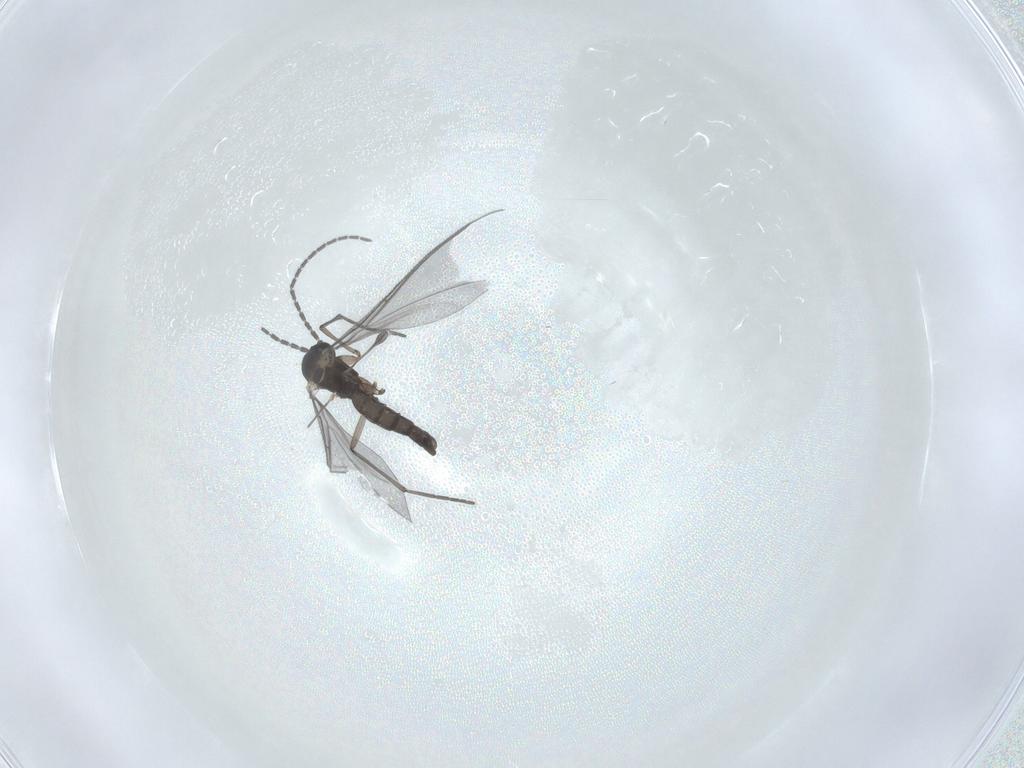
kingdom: Animalia
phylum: Arthropoda
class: Insecta
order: Diptera
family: Sciaridae
